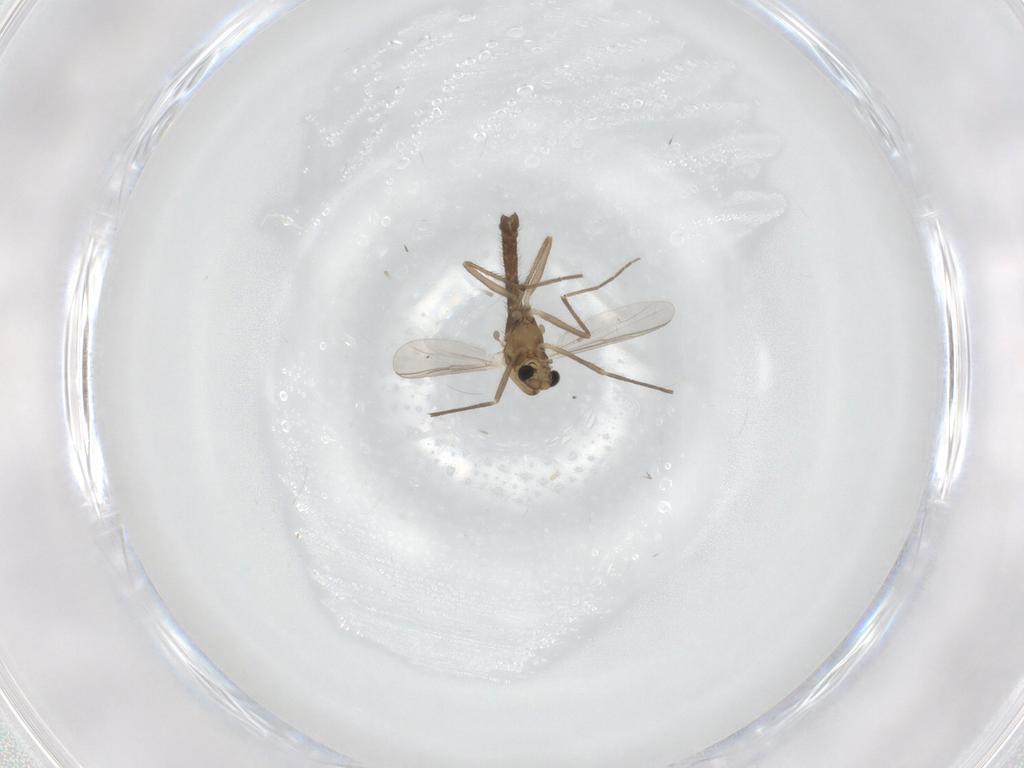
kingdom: Animalia
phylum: Arthropoda
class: Insecta
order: Diptera
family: Chironomidae
